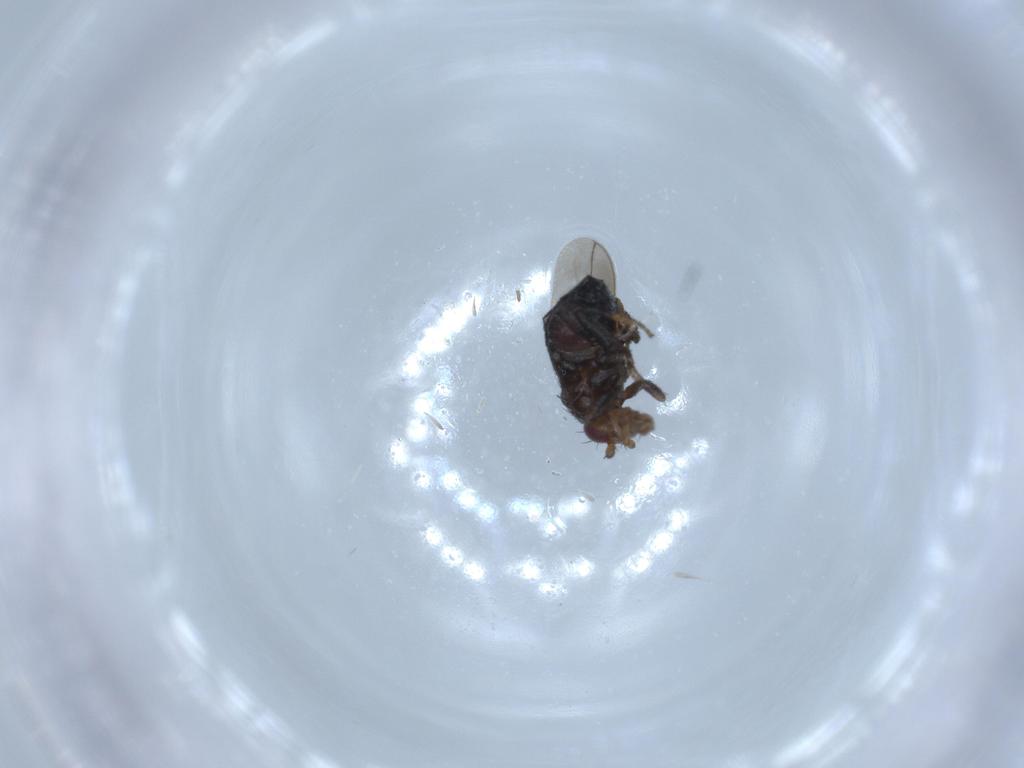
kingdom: Animalia
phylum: Arthropoda
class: Insecta
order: Diptera
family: Sphaeroceridae
